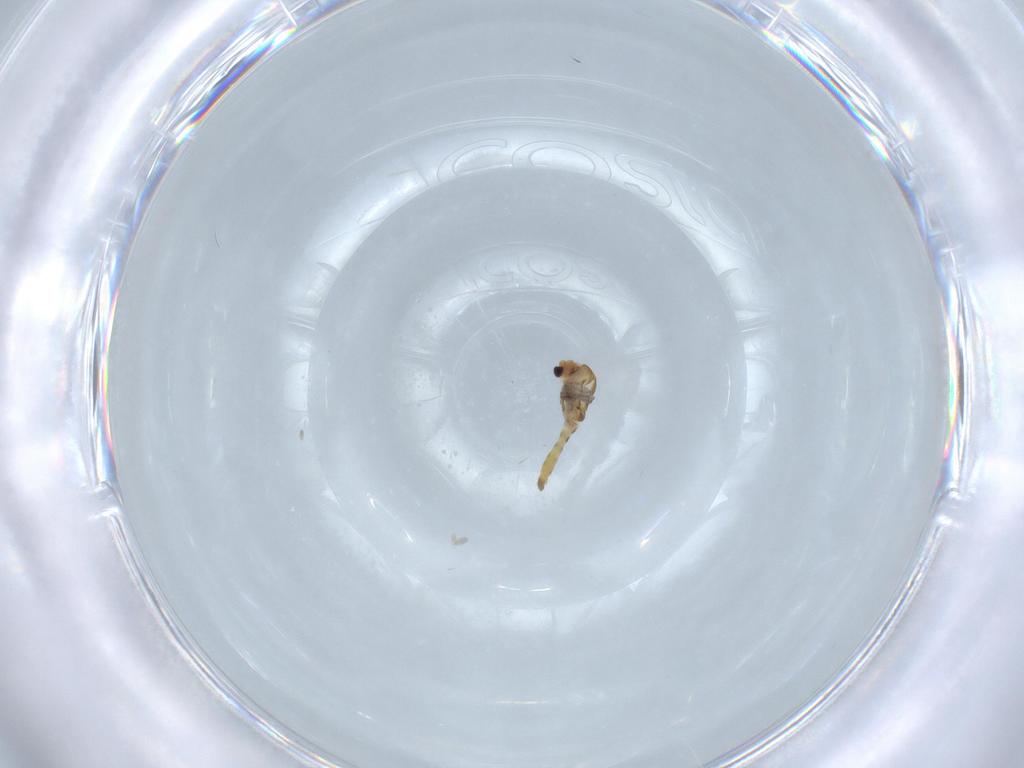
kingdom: Animalia
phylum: Arthropoda
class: Insecta
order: Diptera
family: Chironomidae
